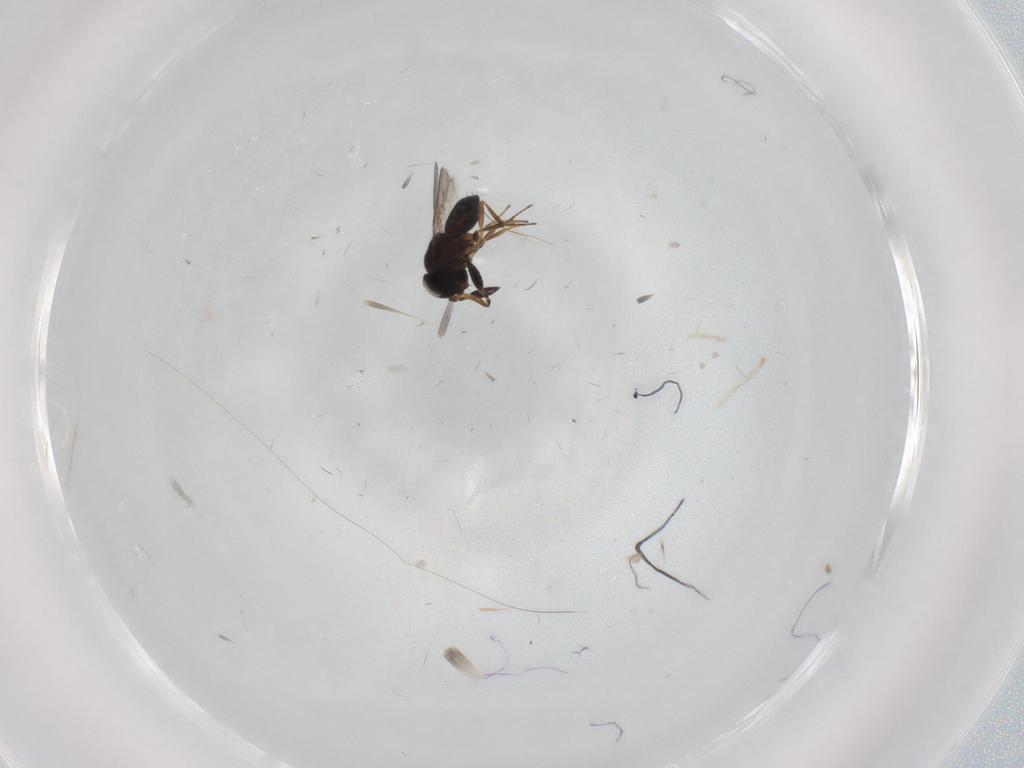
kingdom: Animalia
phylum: Arthropoda
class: Insecta
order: Hymenoptera
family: Scelionidae
